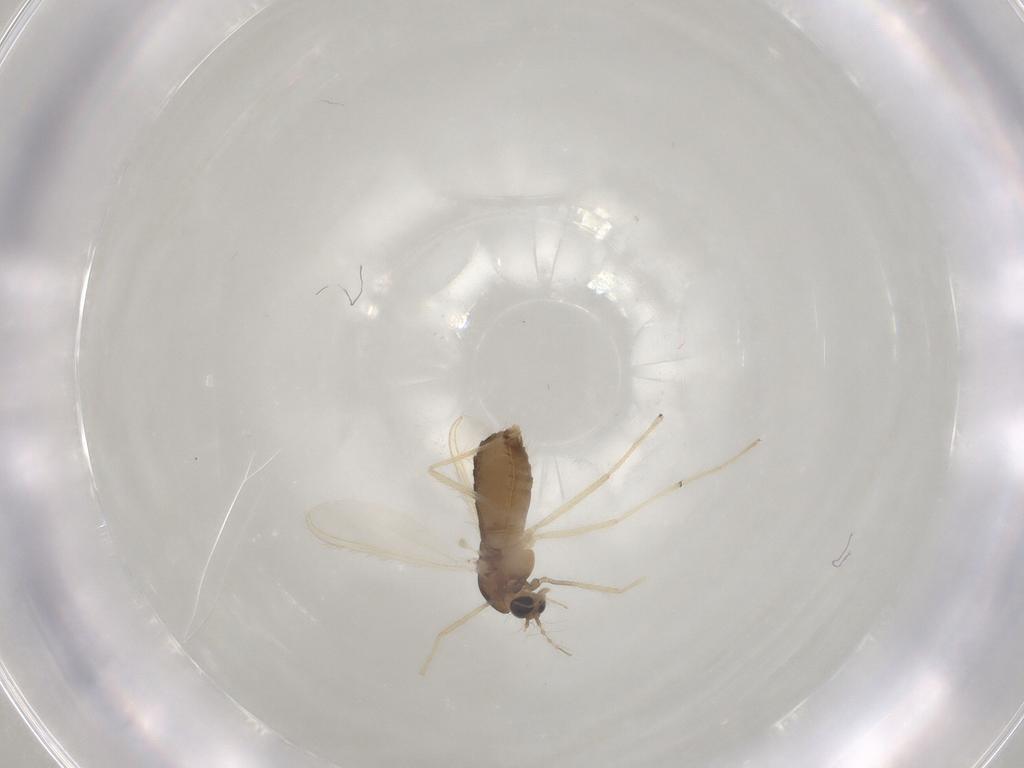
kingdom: Animalia
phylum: Arthropoda
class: Insecta
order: Diptera
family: Chironomidae
